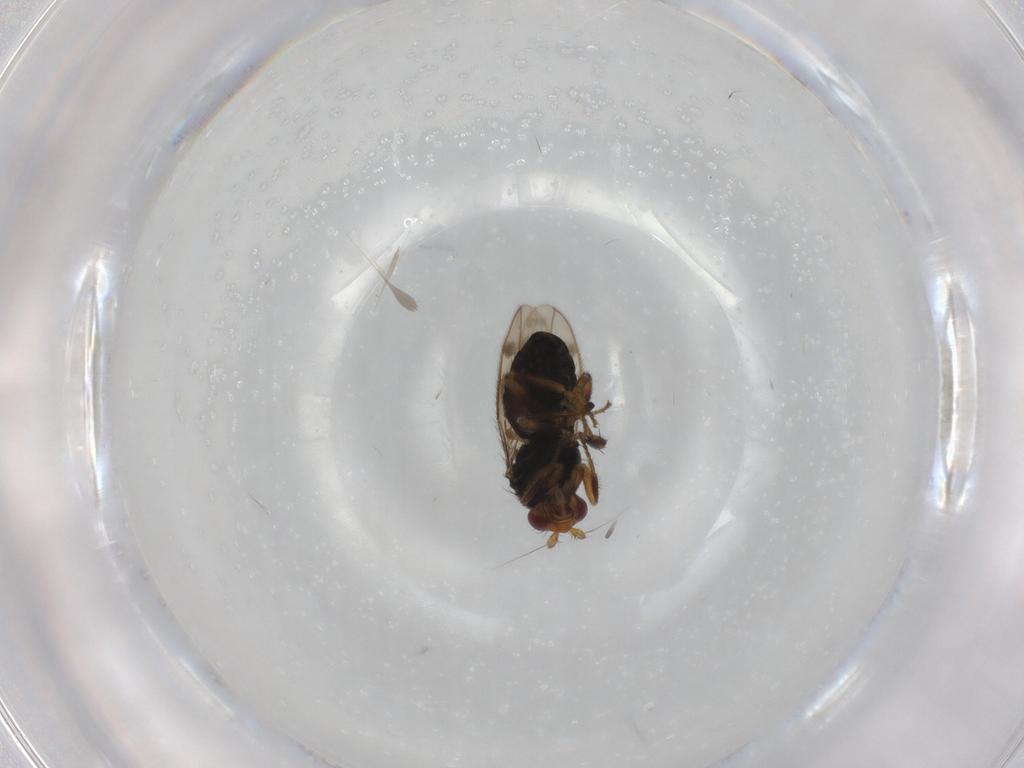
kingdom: Animalia
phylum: Arthropoda
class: Insecta
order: Diptera
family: Sphaeroceridae
